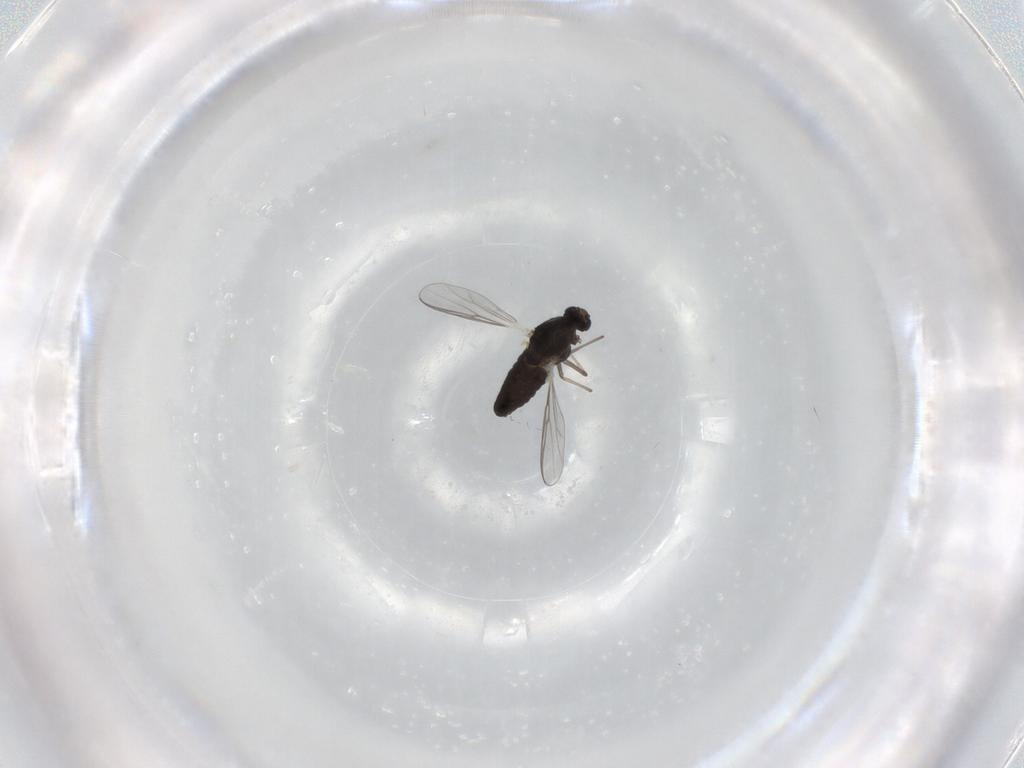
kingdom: Animalia
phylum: Arthropoda
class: Insecta
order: Diptera
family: Chironomidae
